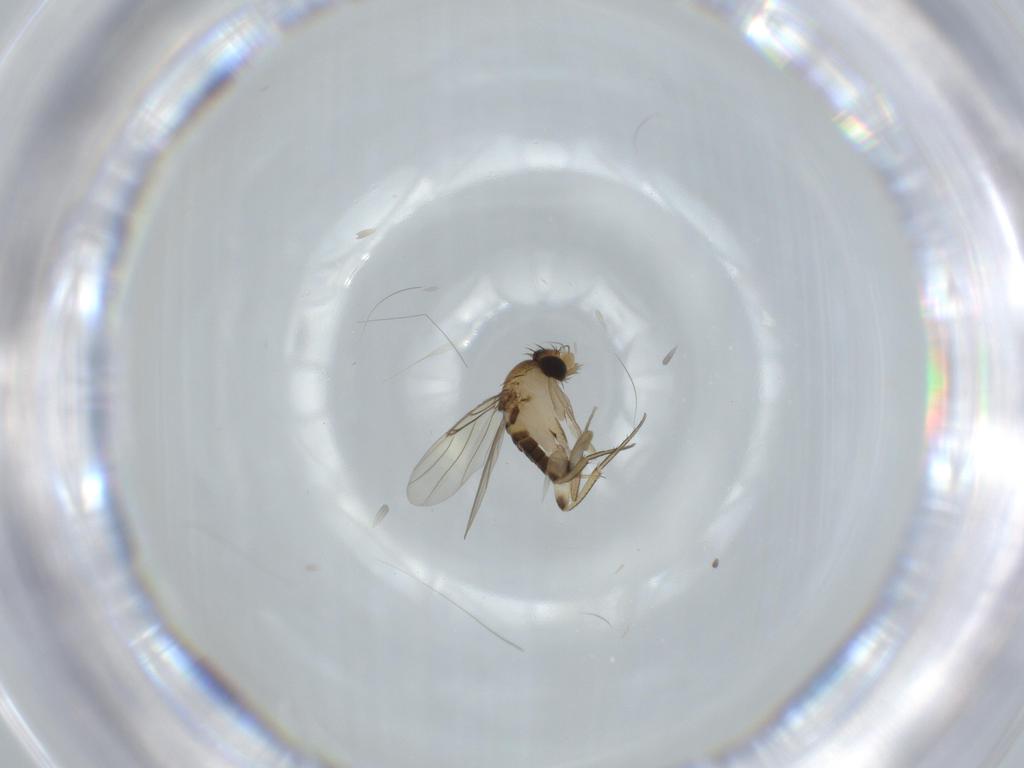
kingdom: Animalia
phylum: Arthropoda
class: Insecta
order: Diptera
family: Phoridae
